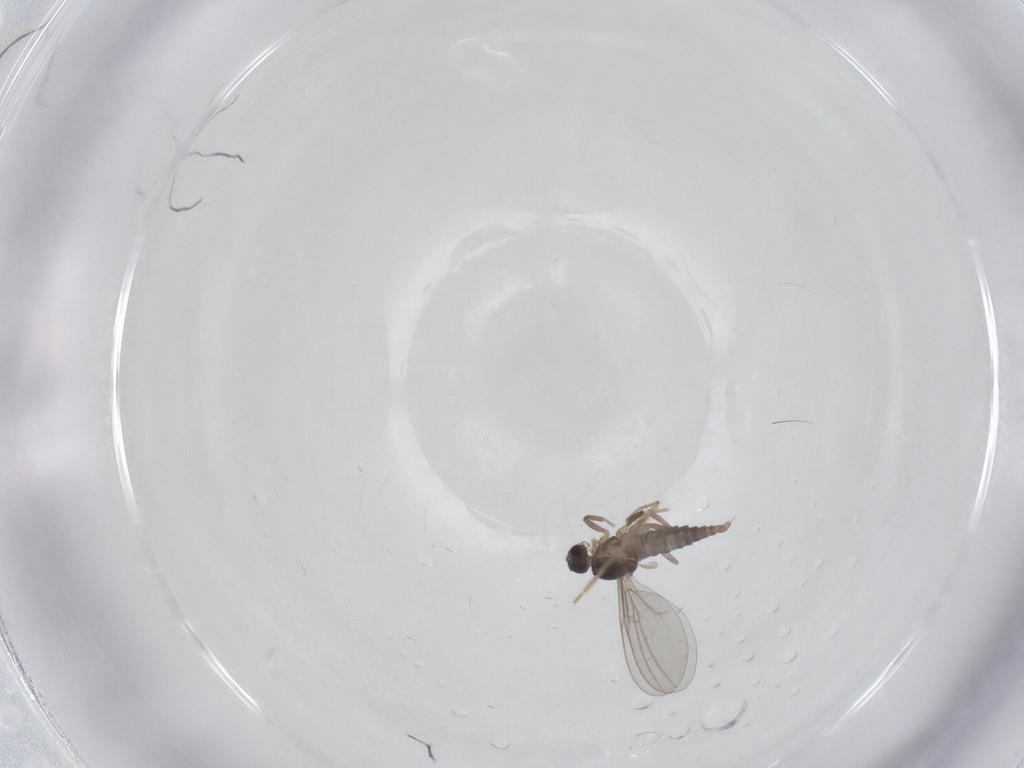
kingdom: Animalia
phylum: Arthropoda
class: Insecta
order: Diptera
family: Cecidomyiidae
